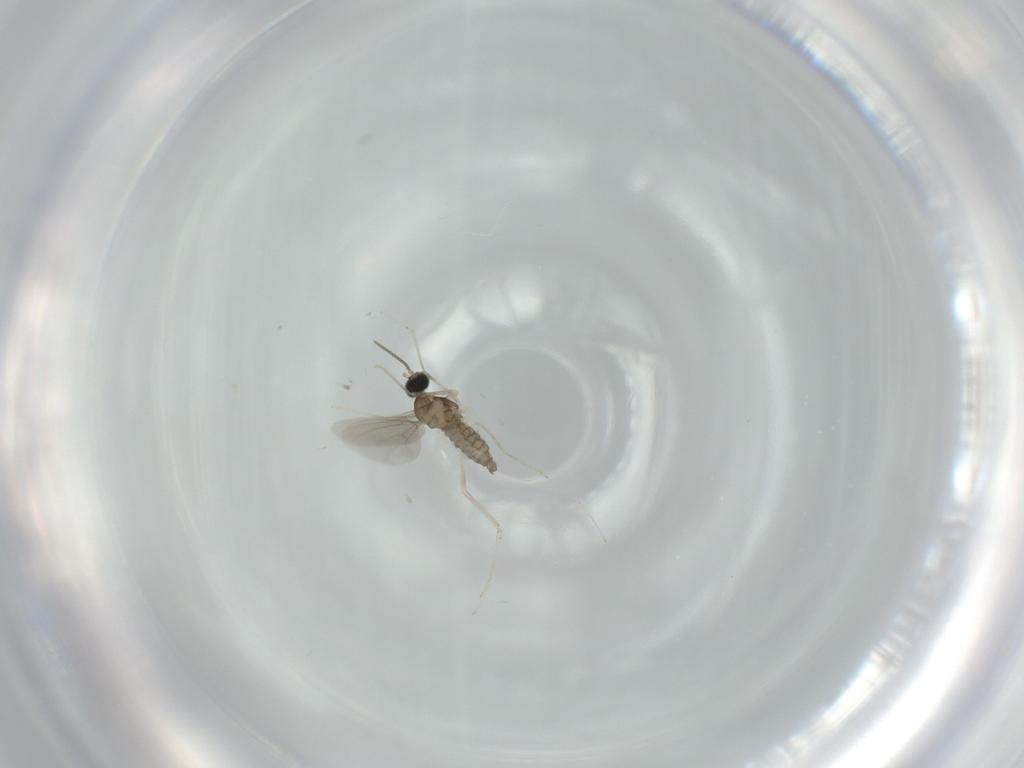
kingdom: Animalia
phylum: Arthropoda
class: Insecta
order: Diptera
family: Cecidomyiidae
